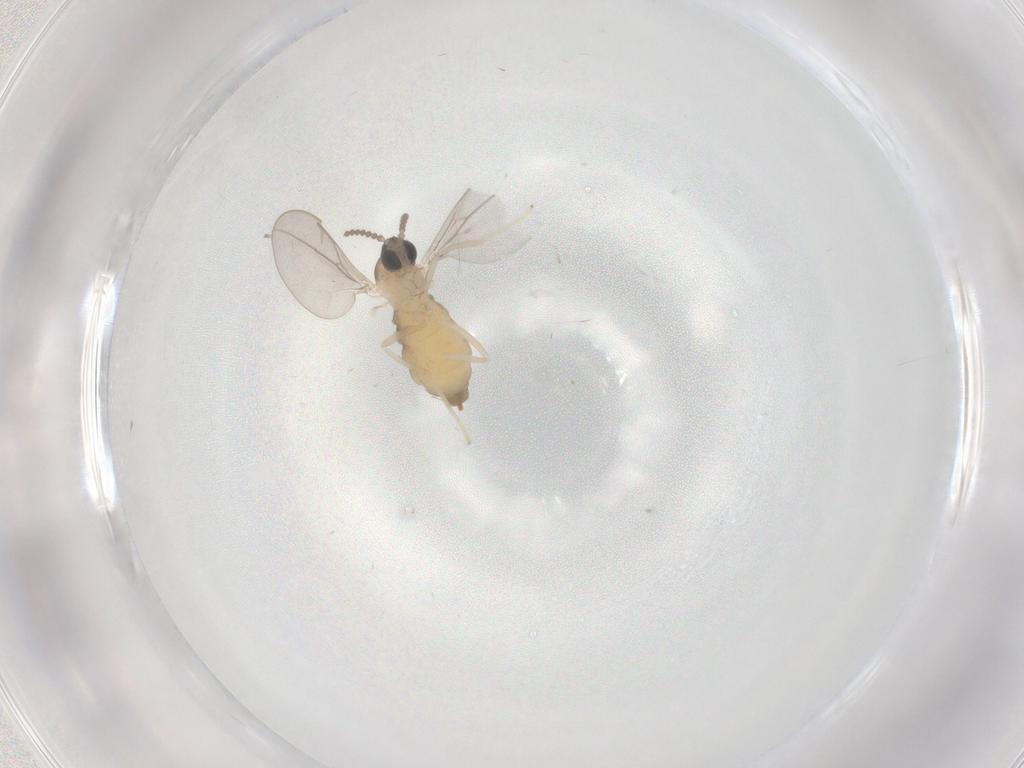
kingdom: Animalia
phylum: Arthropoda
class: Insecta
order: Diptera
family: Cecidomyiidae
